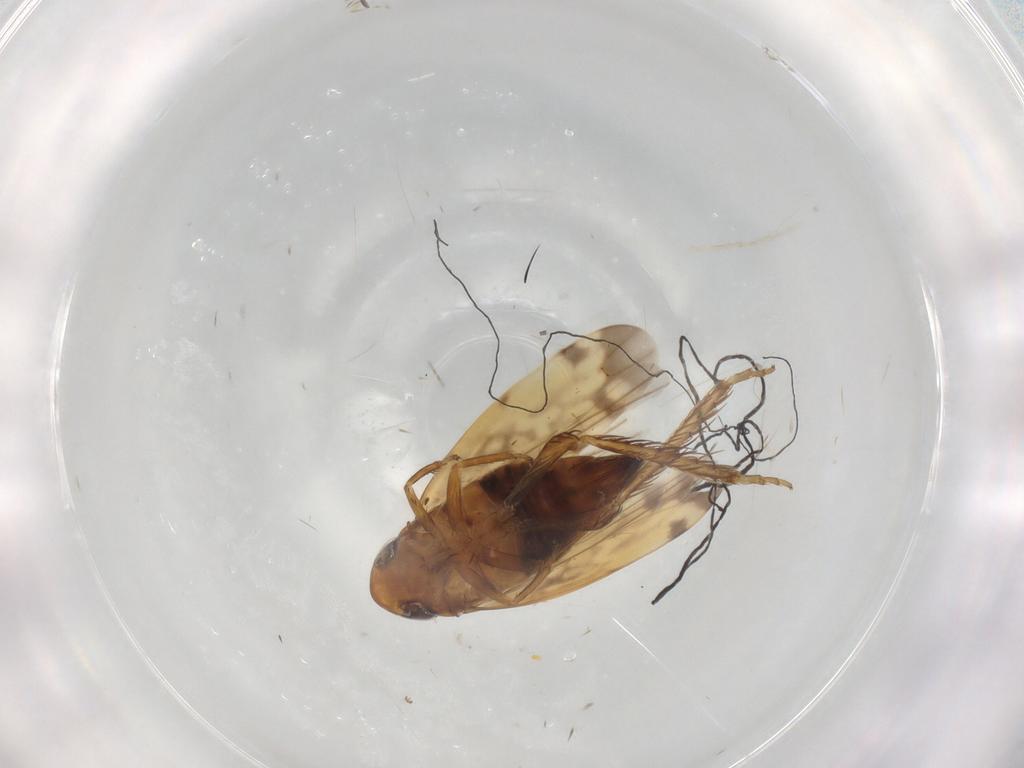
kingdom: Animalia
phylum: Arthropoda
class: Insecta
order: Hemiptera
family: Cicadellidae
